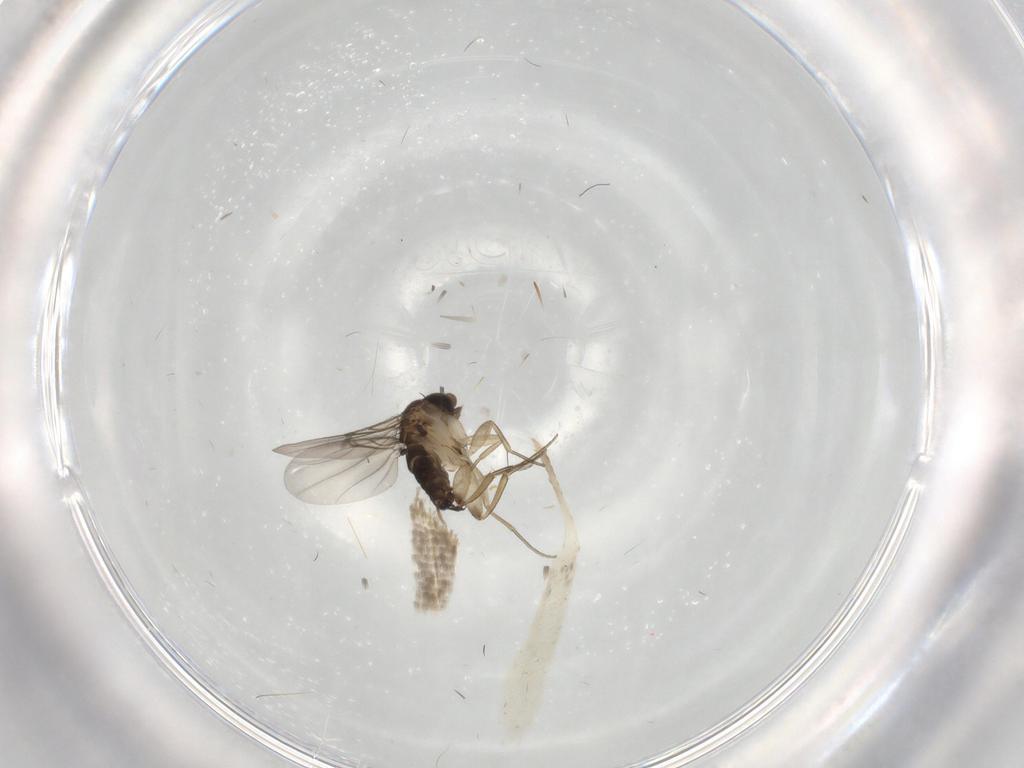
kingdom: Animalia
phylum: Arthropoda
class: Insecta
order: Diptera
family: Phoridae
